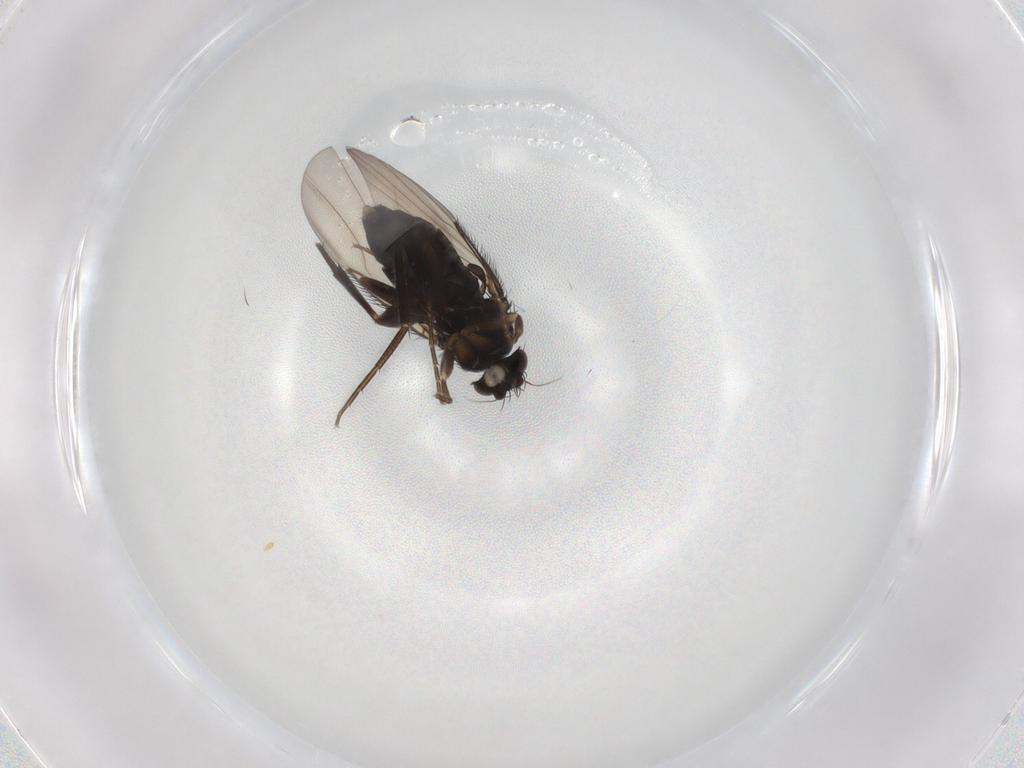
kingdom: Animalia
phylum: Arthropoda
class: Insecta
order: Diptera
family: Phoridae
